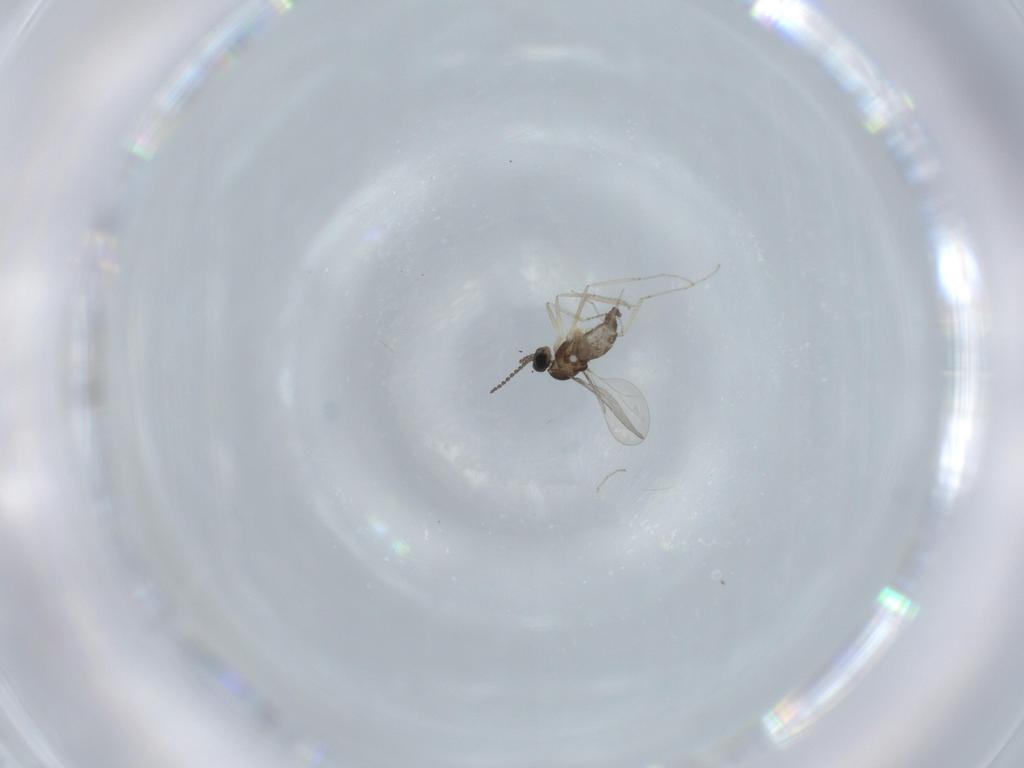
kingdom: Animalia
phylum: Arthropoda
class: Insecta
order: Diptera
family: Cecidomyiidae
